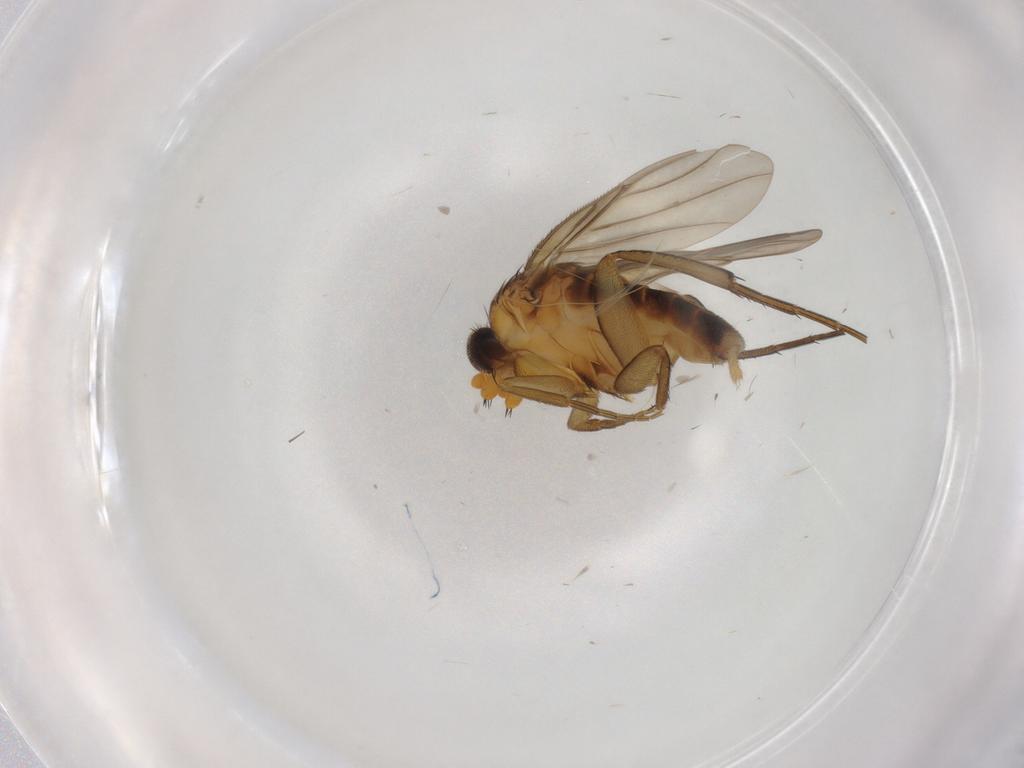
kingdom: Animalia
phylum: Arthropoda
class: Insecta
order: Diptera
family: Phoridae
